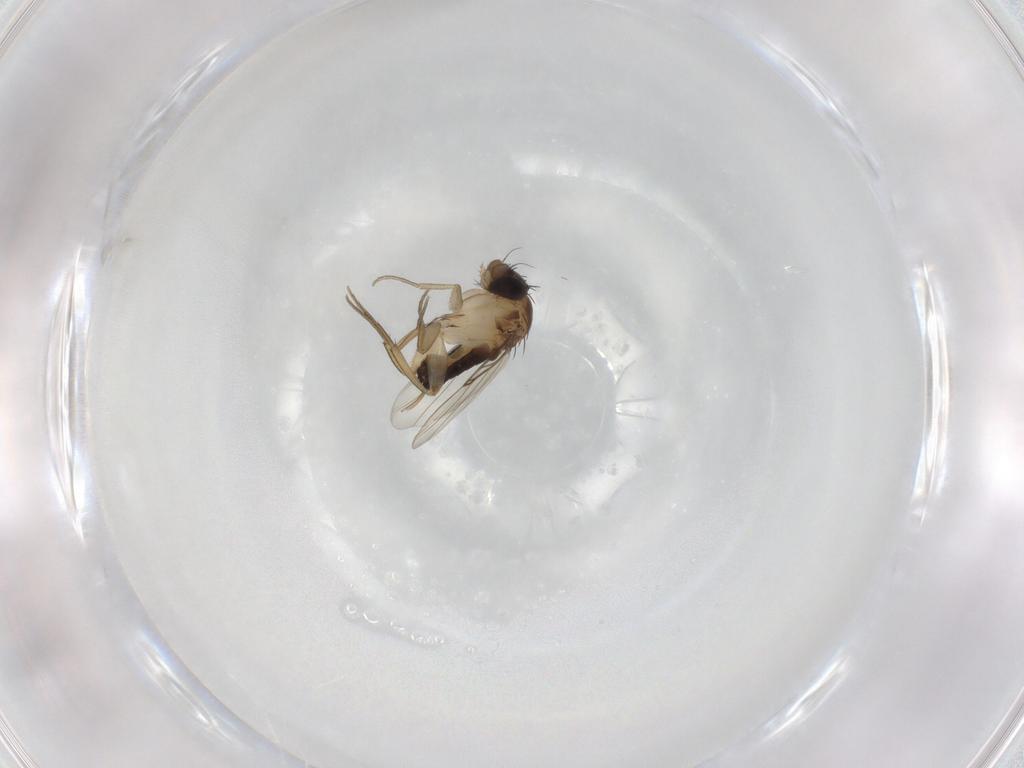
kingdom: Animalia
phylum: Arthropoda
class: Insecta
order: Diptera
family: Phoridae
